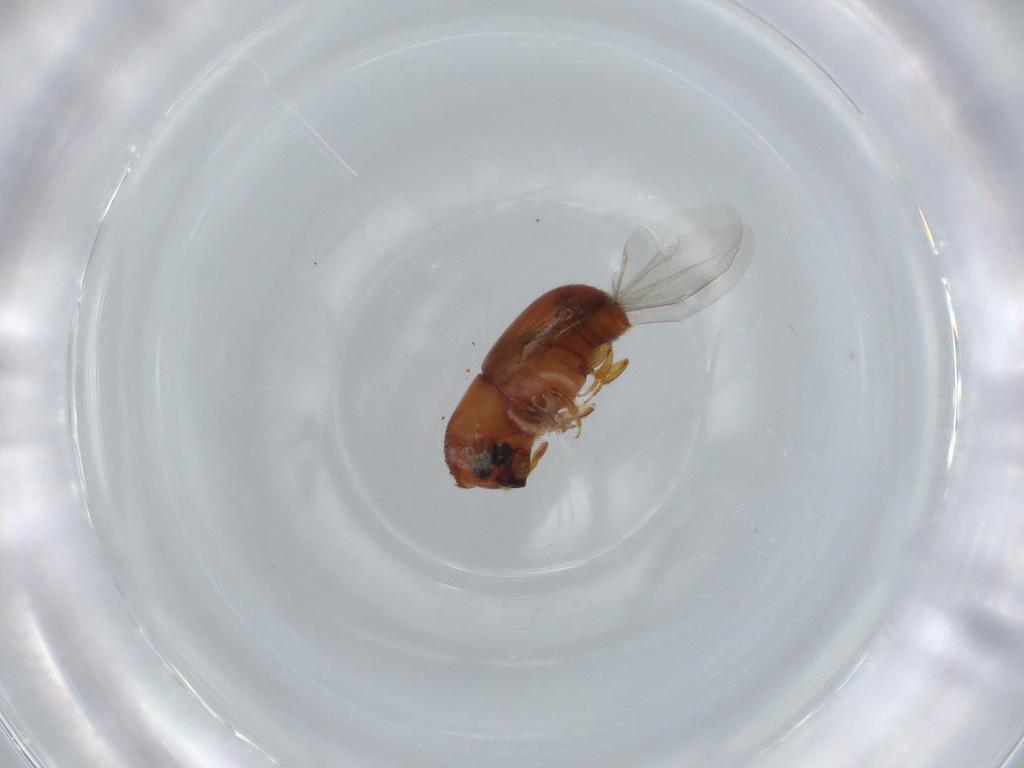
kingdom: Animalia
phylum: Arthropoda
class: Insecta
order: Coleoptera
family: Curculionidae
